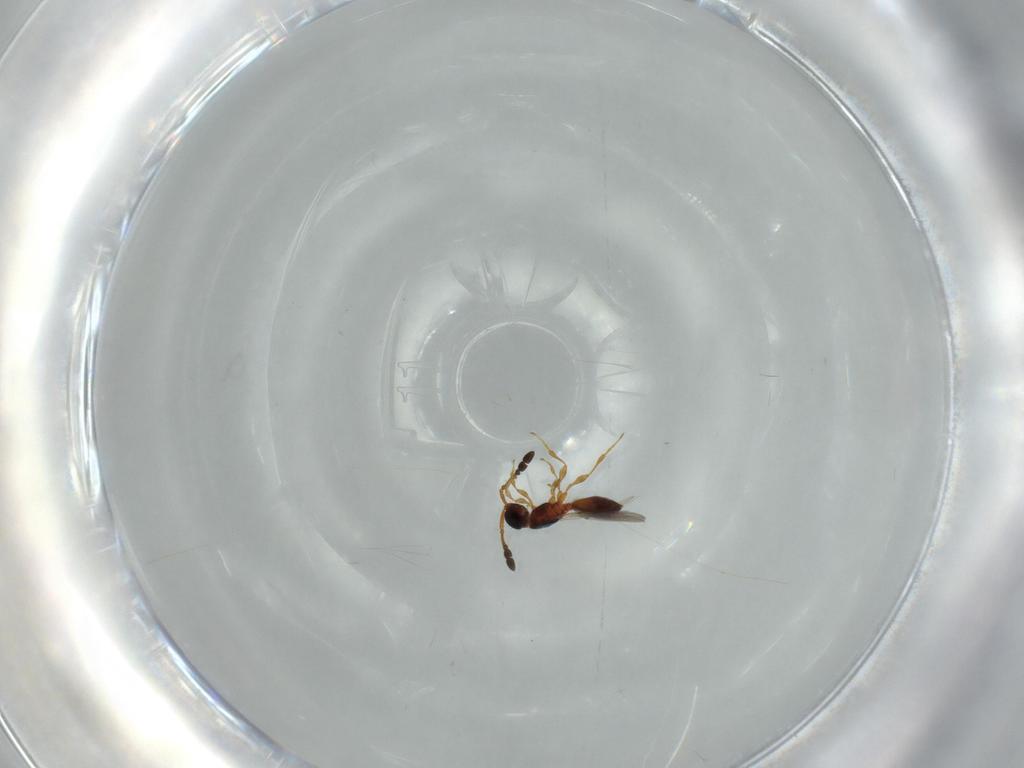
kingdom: Animalia
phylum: Arthropoda
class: Insecta
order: Hymenoptera
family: Diapriidae
